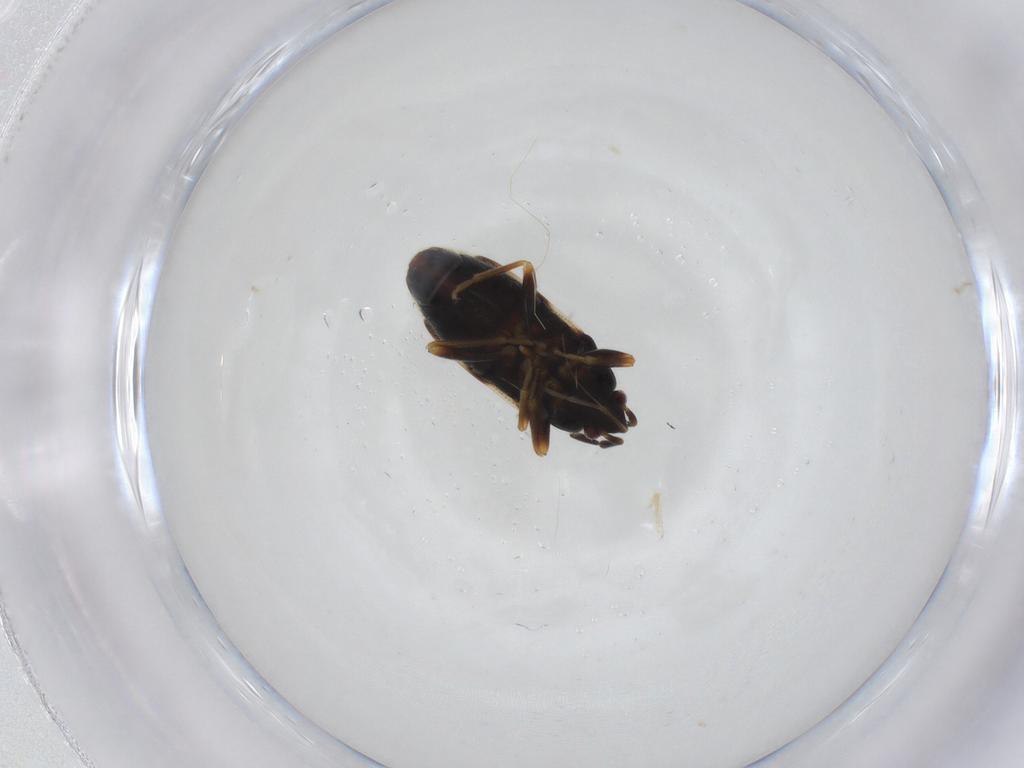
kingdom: Animalia
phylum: Arthropoda
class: Insecta
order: Hemiptera
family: Rhyparochromidae
